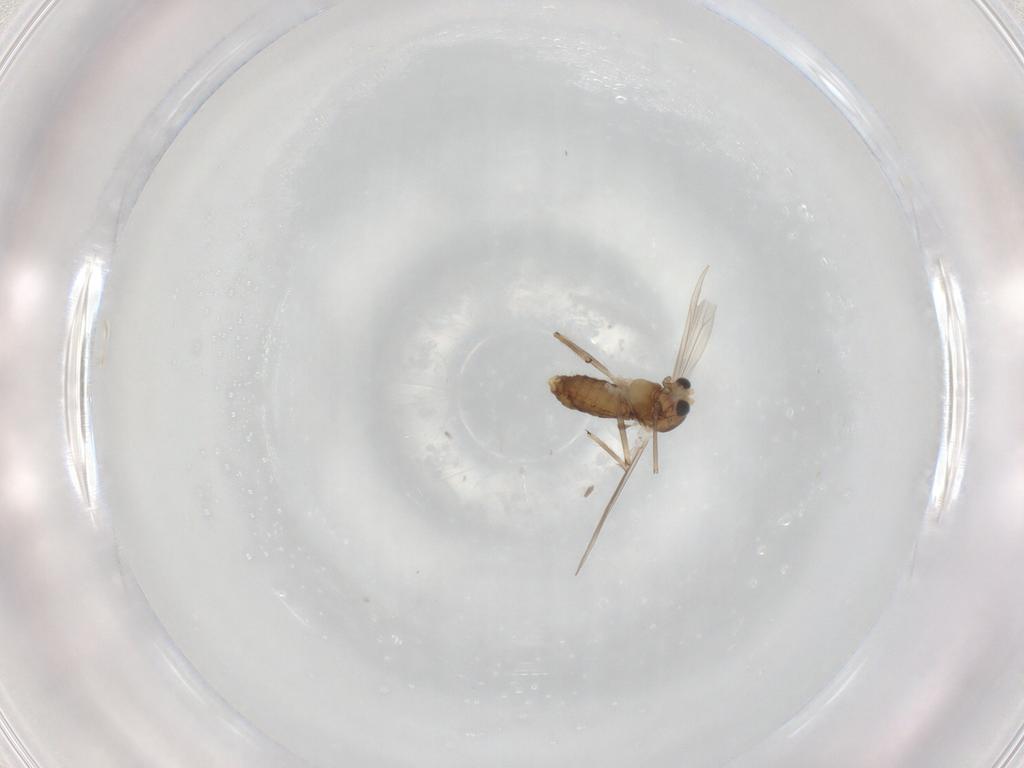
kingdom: Animalia
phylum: Arthropoda
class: Insecta
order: Diptera
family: Chironomidae
